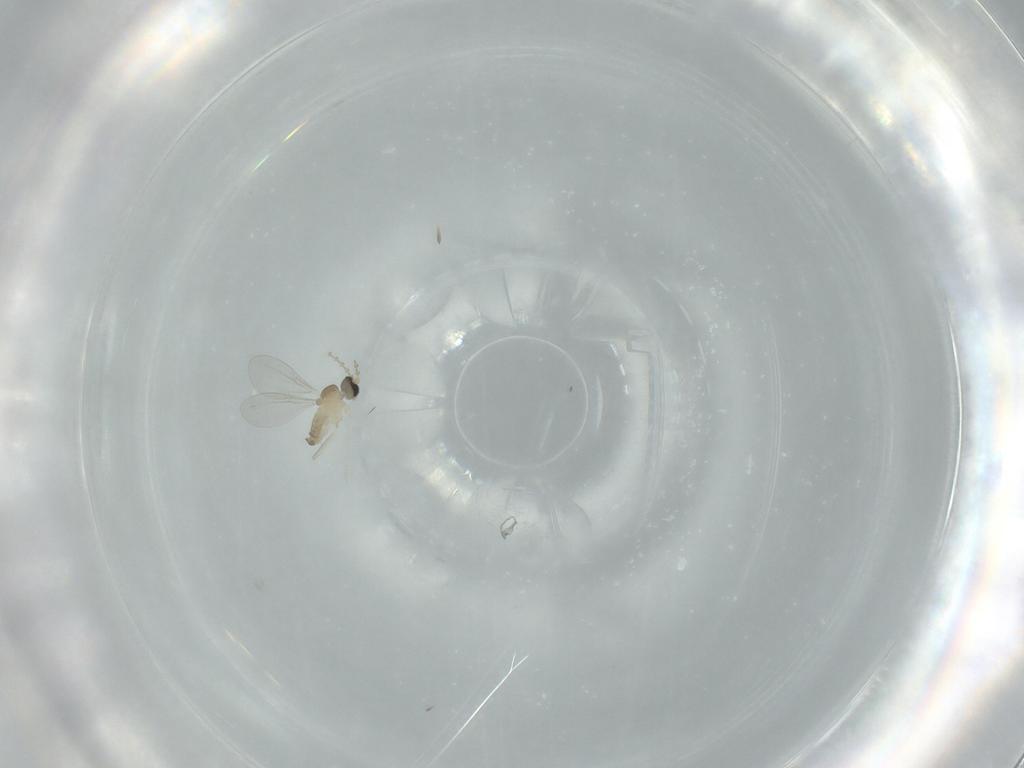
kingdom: Animalia
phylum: Arthropoda
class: Insecta
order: Diptera
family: Cecidomyiidae
